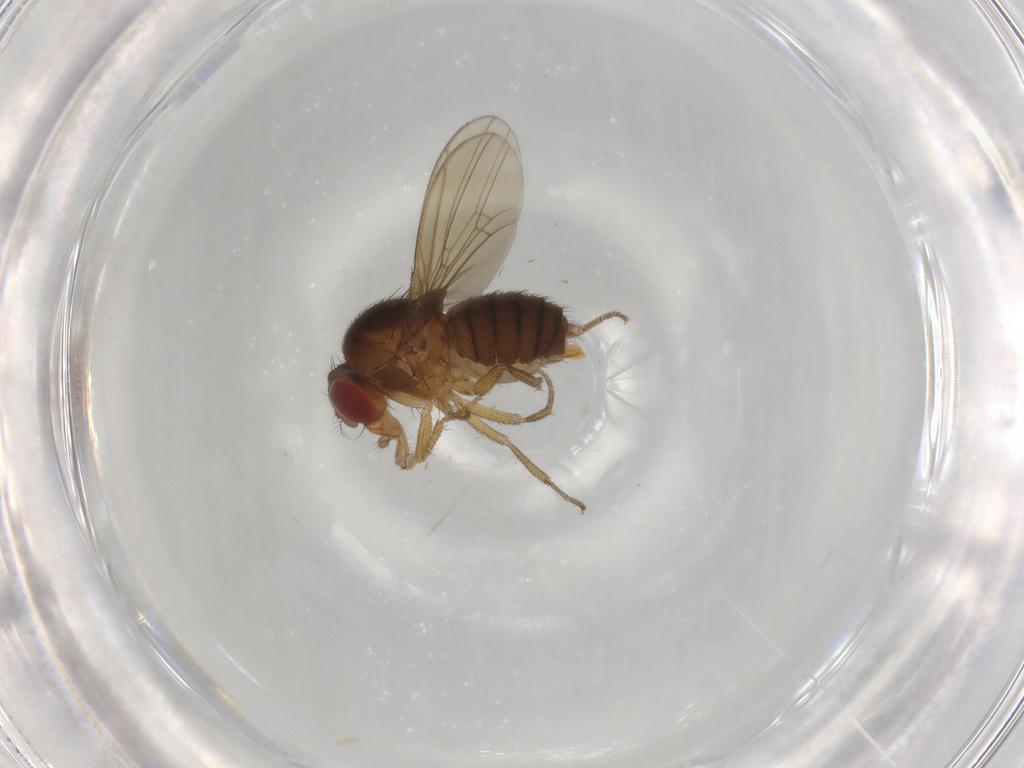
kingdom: Animalia
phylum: Arthropoda
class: Insecta
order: Diptera
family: Drosophilidae
